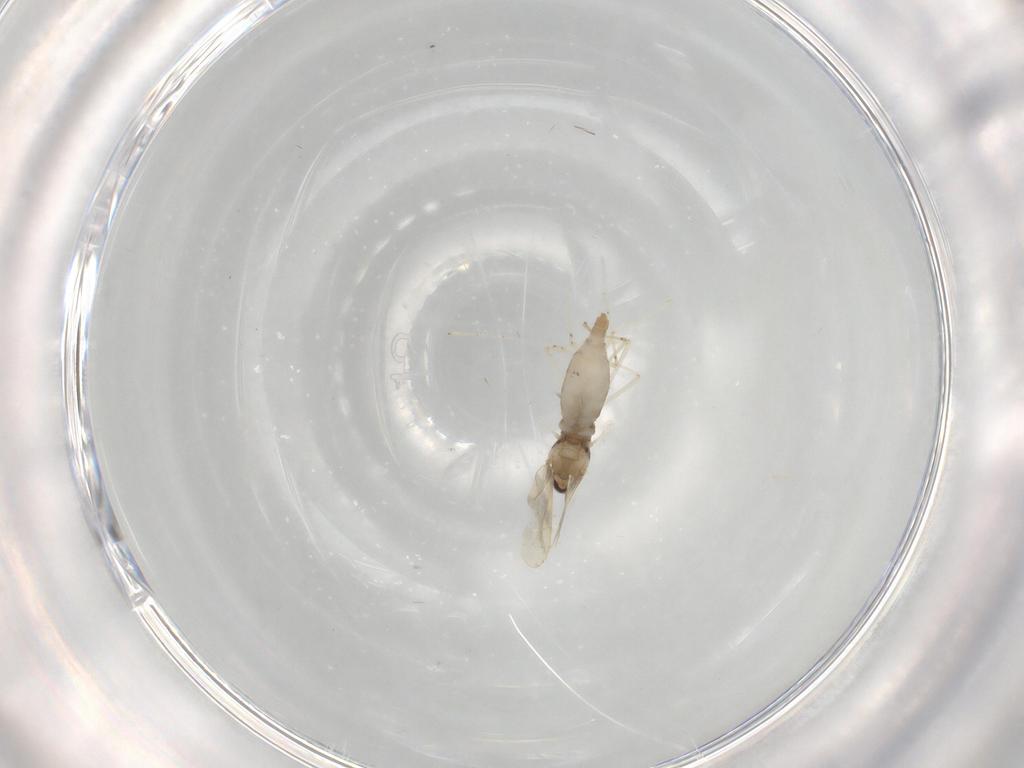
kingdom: Animalia
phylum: Arthropoda
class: Insecta
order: Diptera
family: Cecidomyiidae
